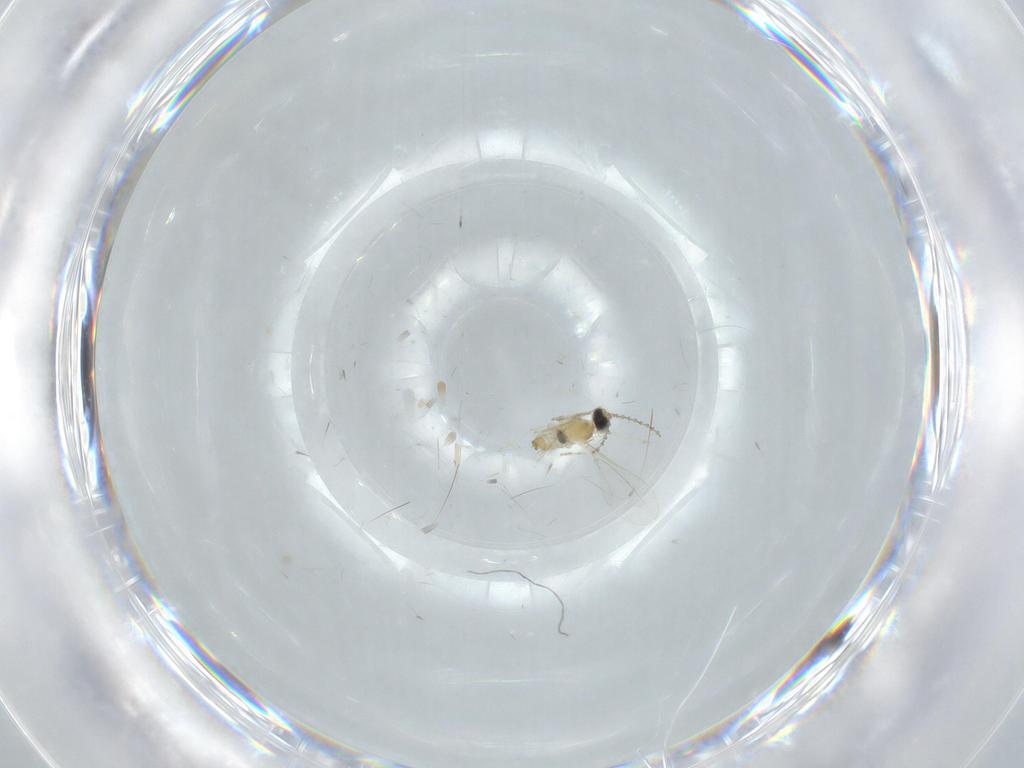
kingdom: Animalia
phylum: Arthropoda
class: Insecta
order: Diptera
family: Cecidomyiidae
